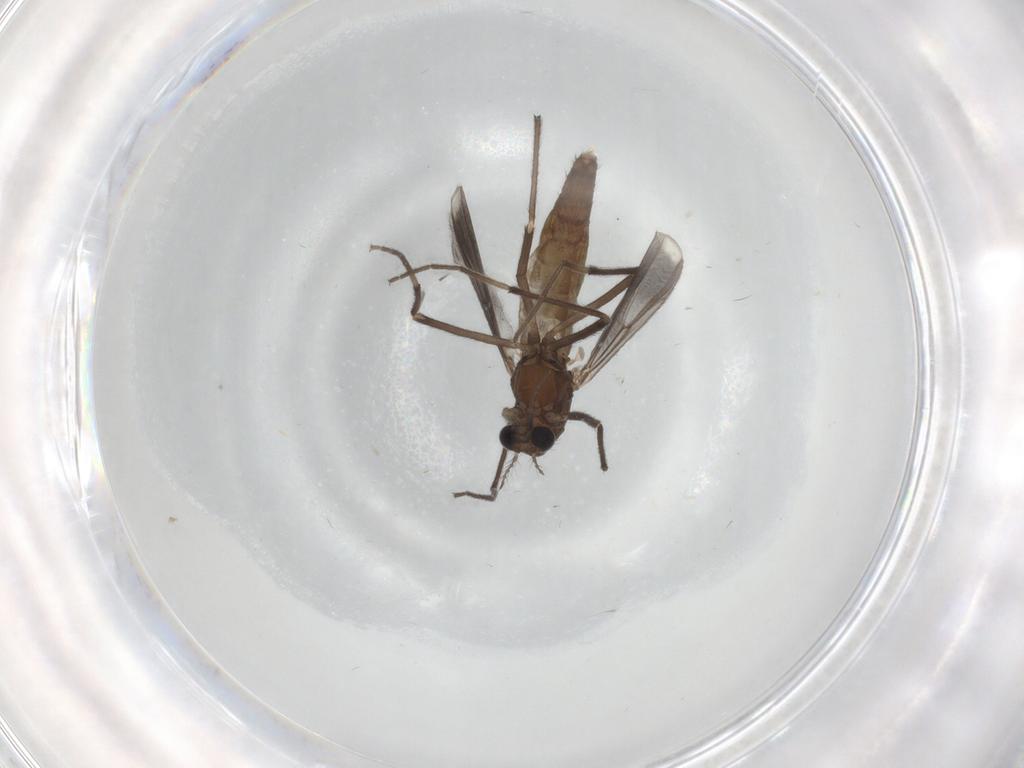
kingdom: Animalia
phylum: Arthropoda
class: Insecta
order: Diptera
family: Chironomidae
